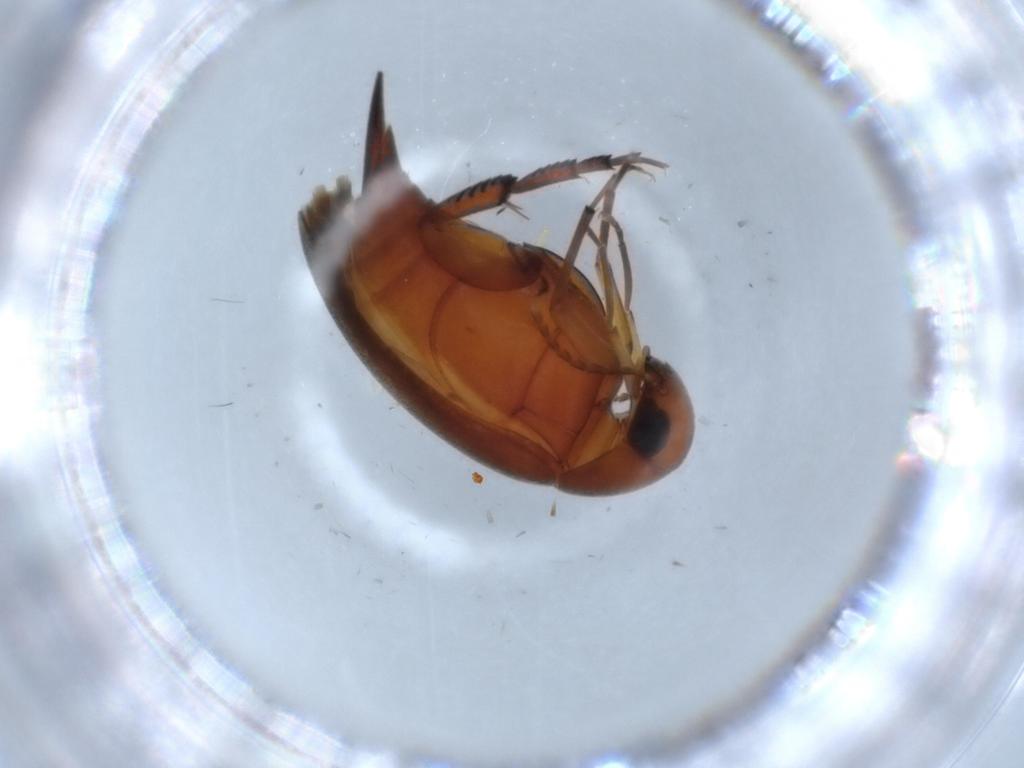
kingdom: Animalia
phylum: Arthropoda
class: Insecta
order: Coleoptera
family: Mordellidae
